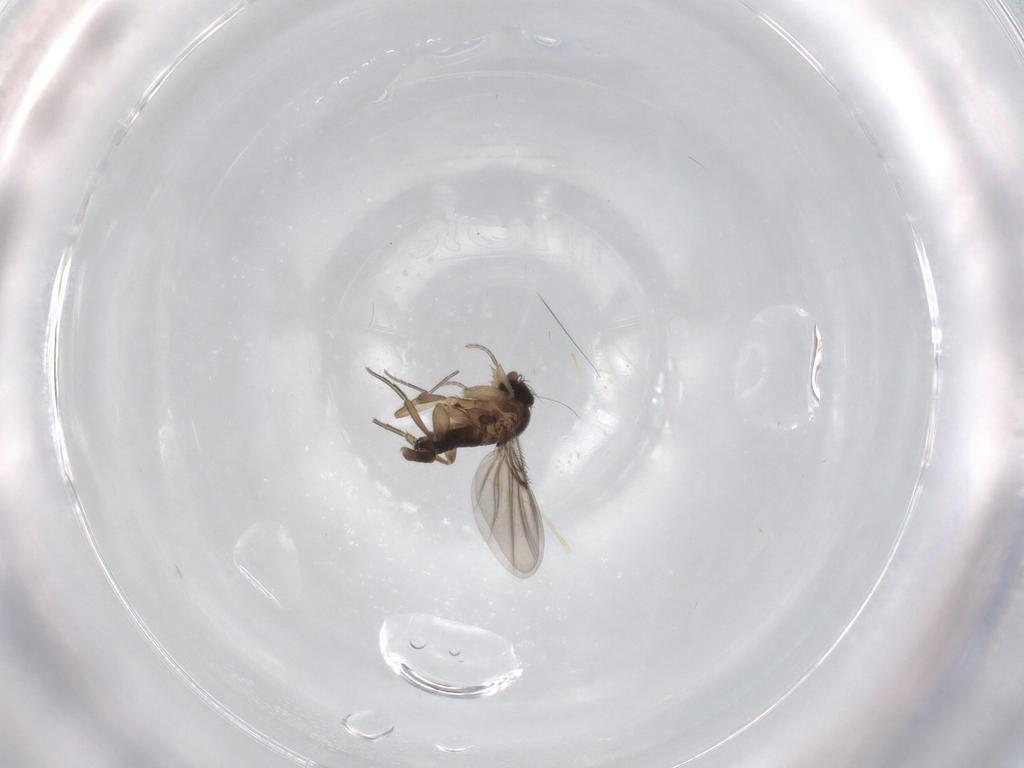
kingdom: Animalia
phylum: Arthropoda
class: Insecta
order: Diptera
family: Phoridae
